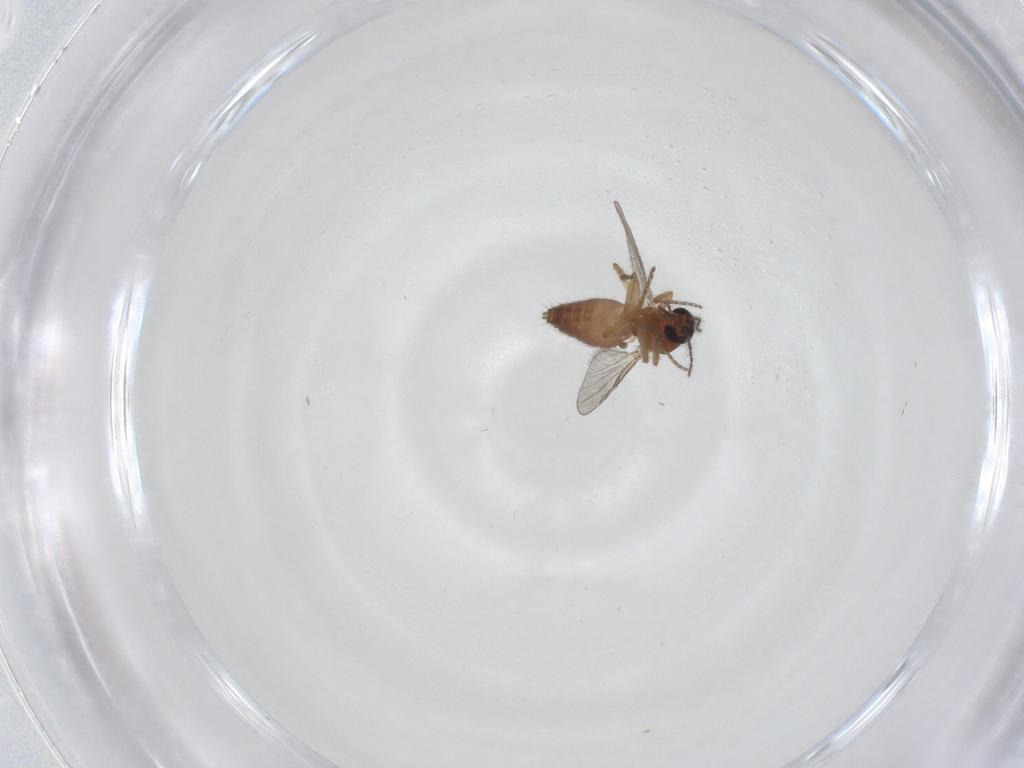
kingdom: Animalia
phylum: Arthropoda
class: Insecta
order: Diptera
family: Ceratopogonidae
